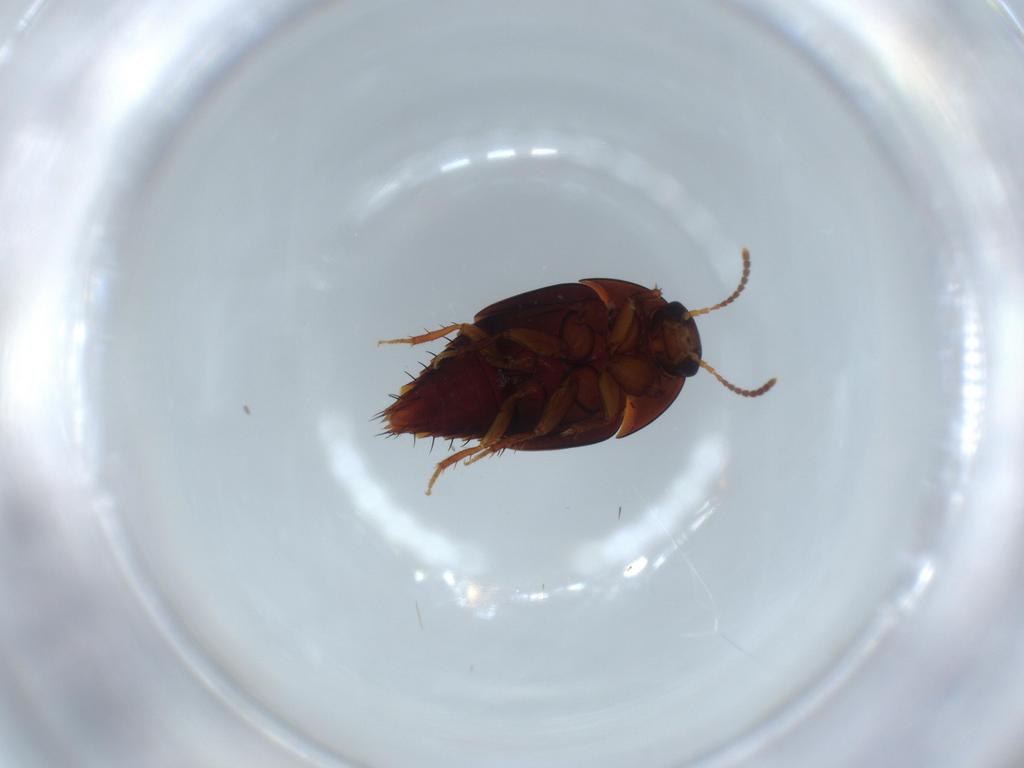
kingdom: Animalia
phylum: Arthropoda
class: Insecta
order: Coleoptera
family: Staphylinidae
